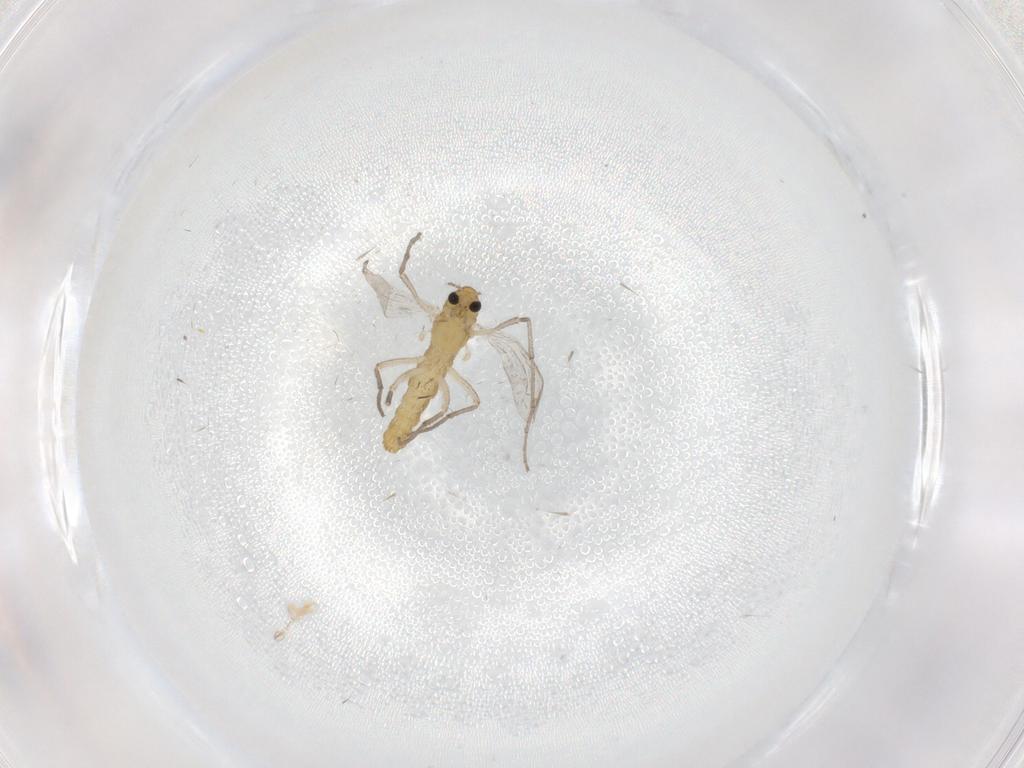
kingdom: Animalia
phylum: Arthropoda
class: Insecta
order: Diptera
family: Chironomidae
